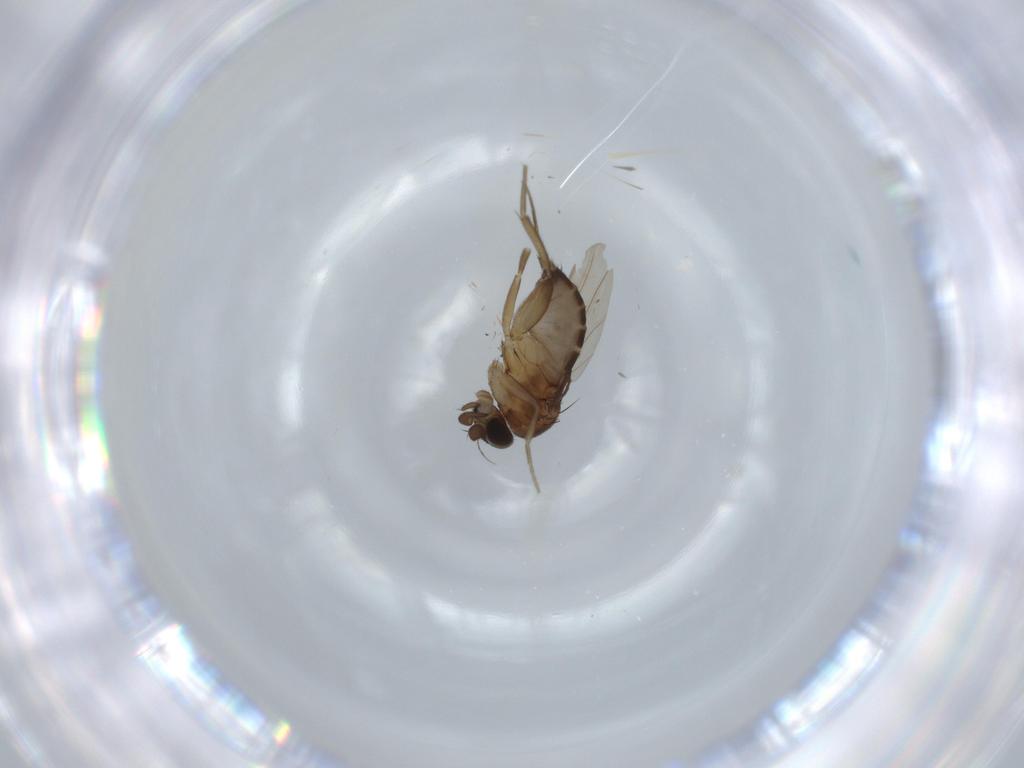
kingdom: Animalia
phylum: Arthropoda
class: Insecta
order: Diptera
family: Phoridae
